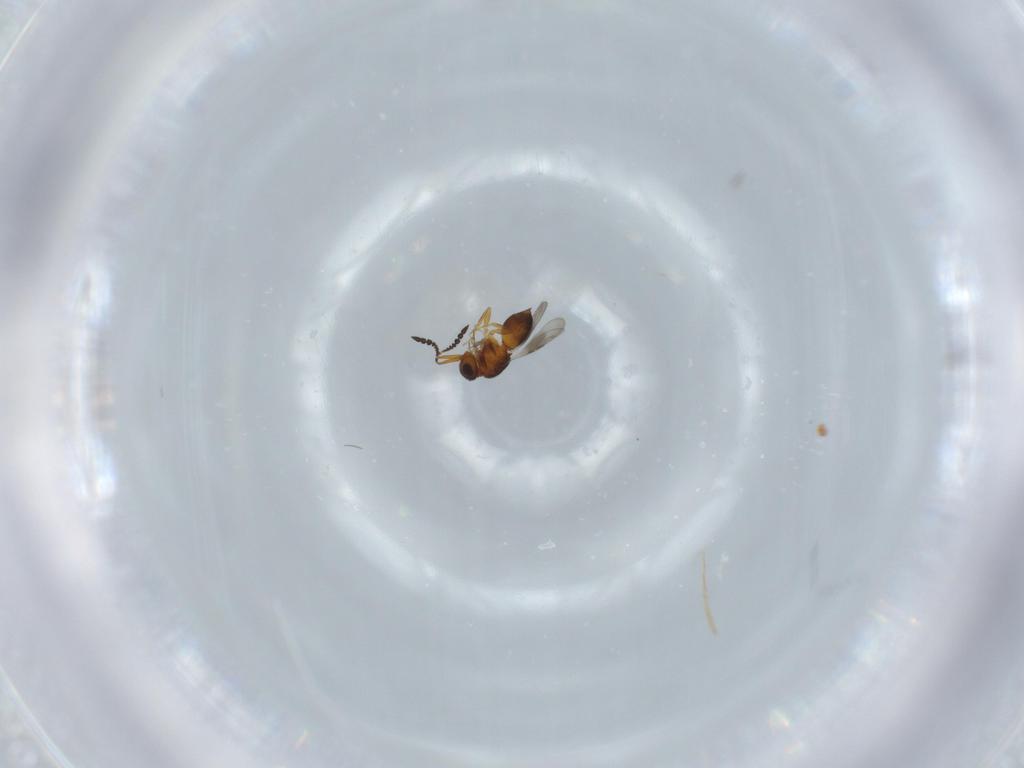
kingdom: Animalia
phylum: Arthropoda
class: Insecta
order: Hymenoptera
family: Ceraphronidae
